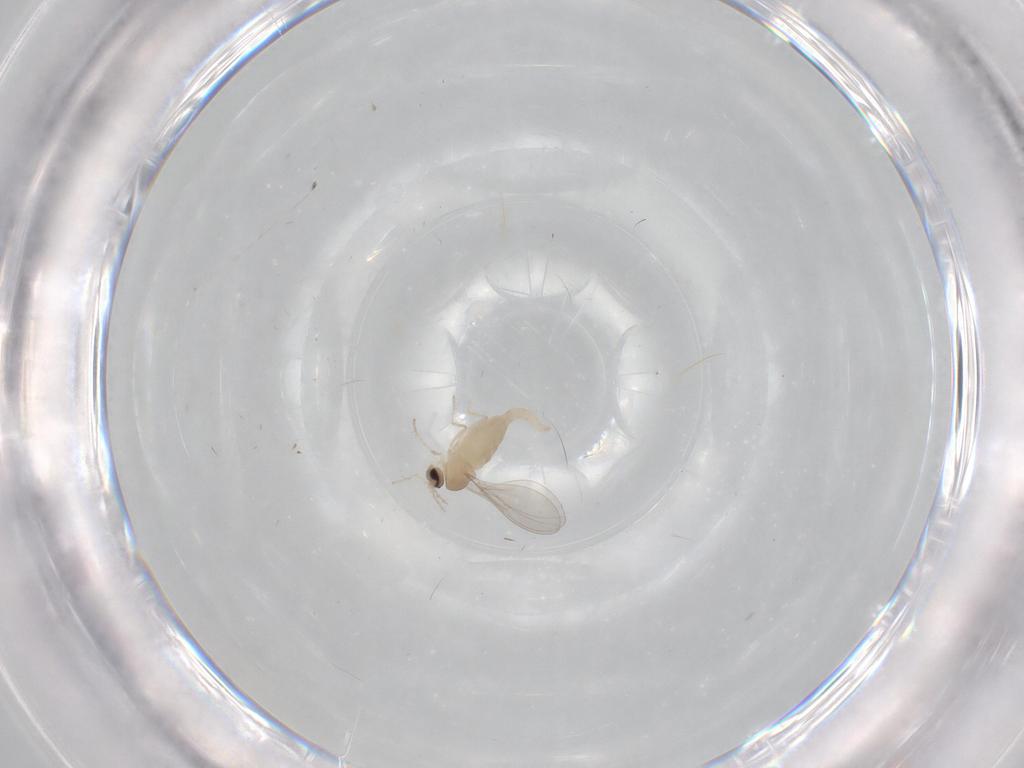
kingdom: Animalia
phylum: Arthropoda
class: Insecta
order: Diptera
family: Cecidomyiidae
